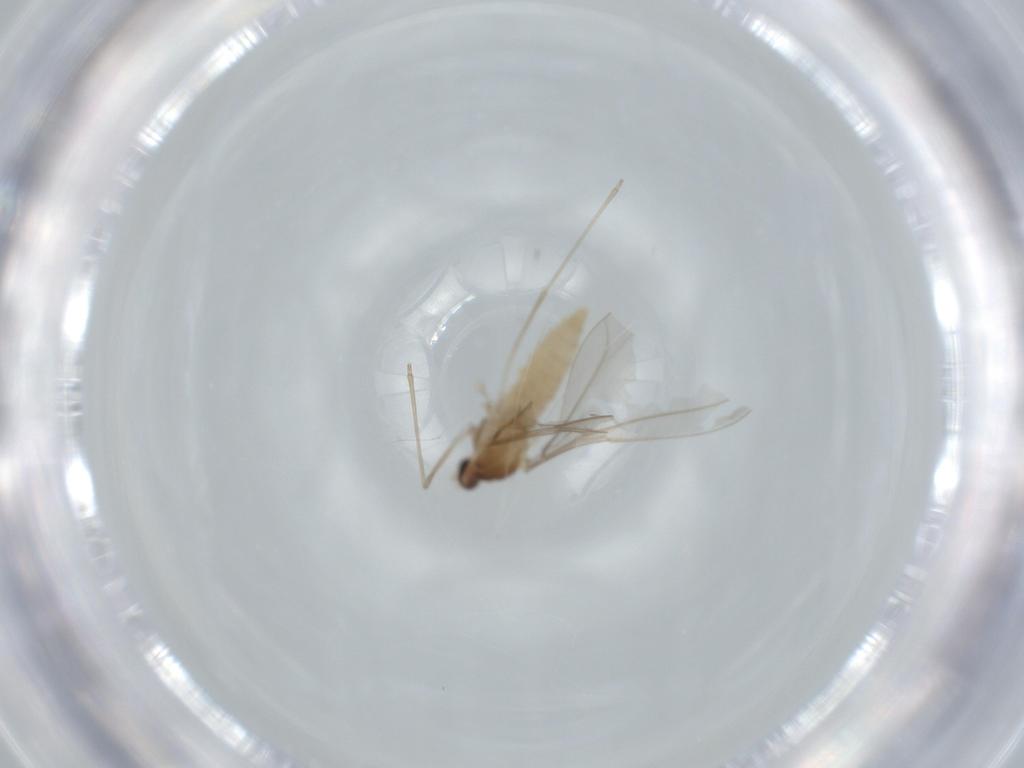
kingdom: Animalia
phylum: Arthropoda
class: Insecta
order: Diptera
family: Cecidomyiidae
